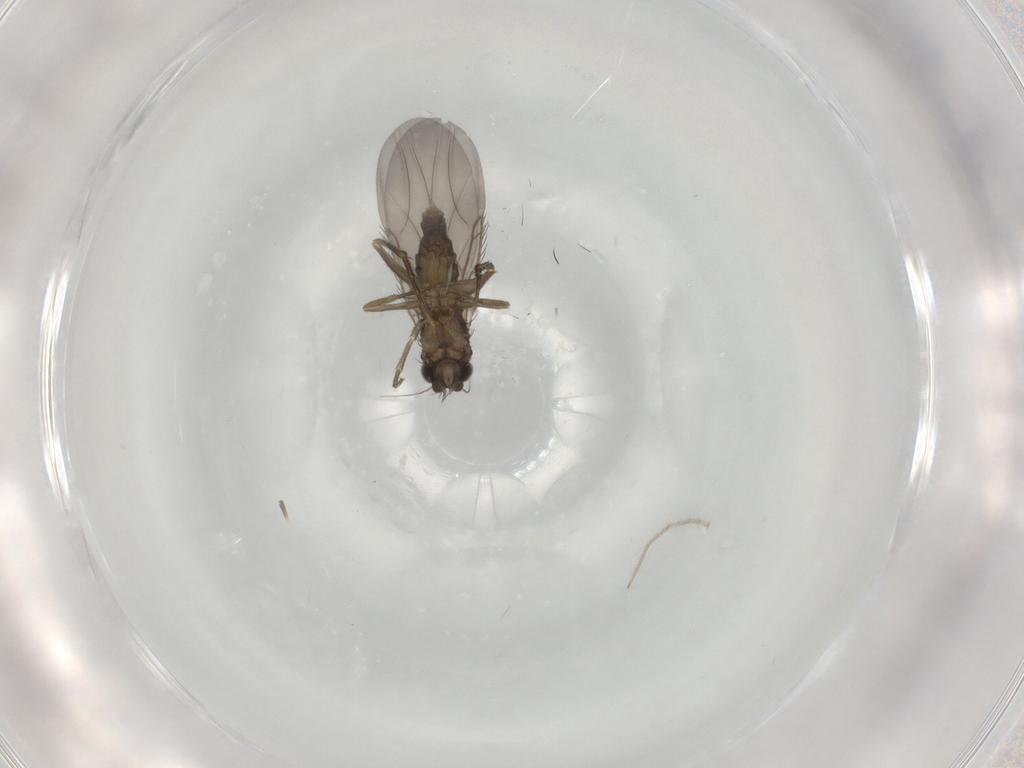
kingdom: Animalia
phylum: Arthropoda
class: Insecta
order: Diptera
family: Phoridae
